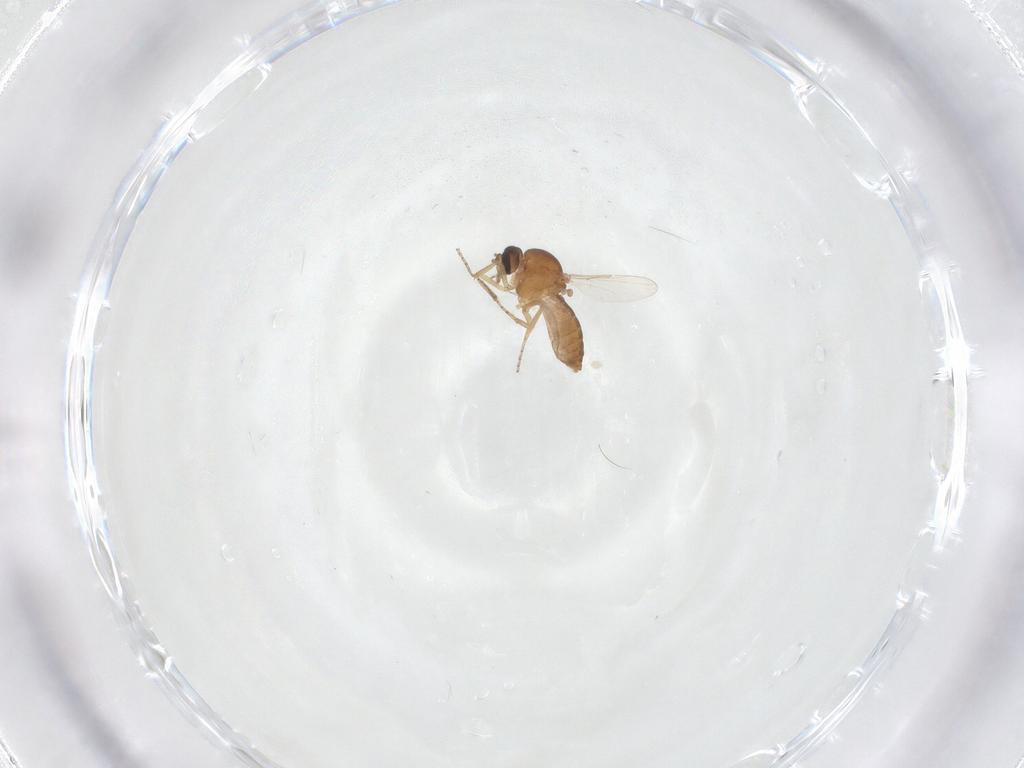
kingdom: Animalia
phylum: Arthropoda
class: Insecta
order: Diptera
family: Ceratopogonidae
